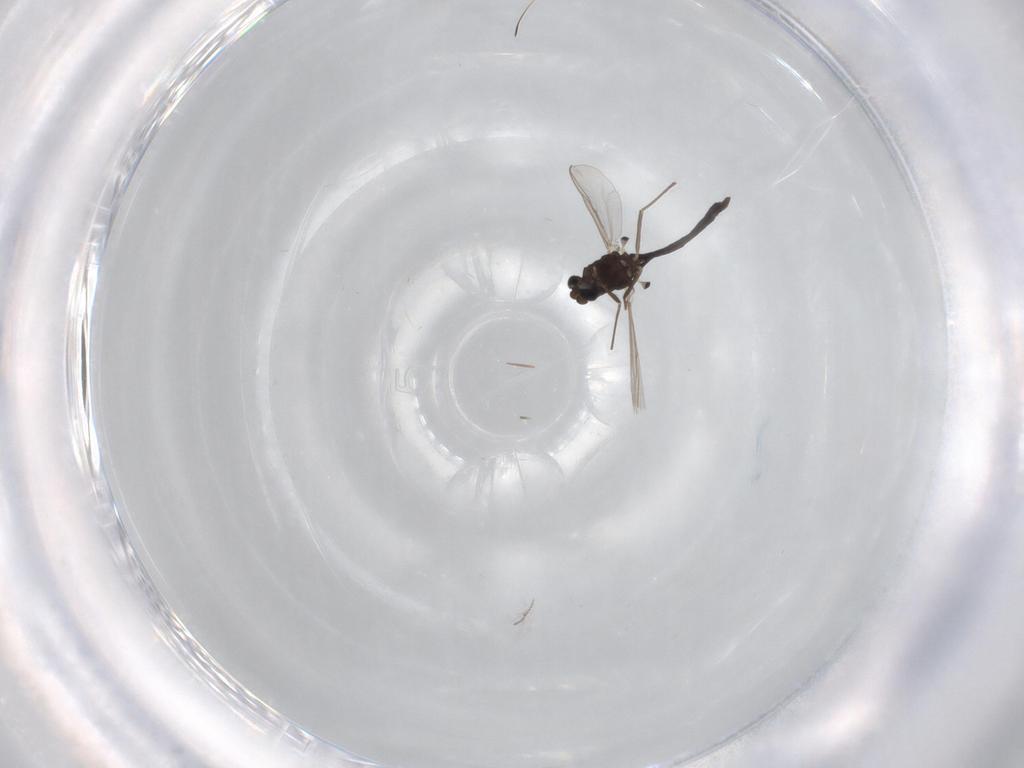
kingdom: Animalia
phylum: Arthropoda
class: Insecta
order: Diptera
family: Chironomidae
